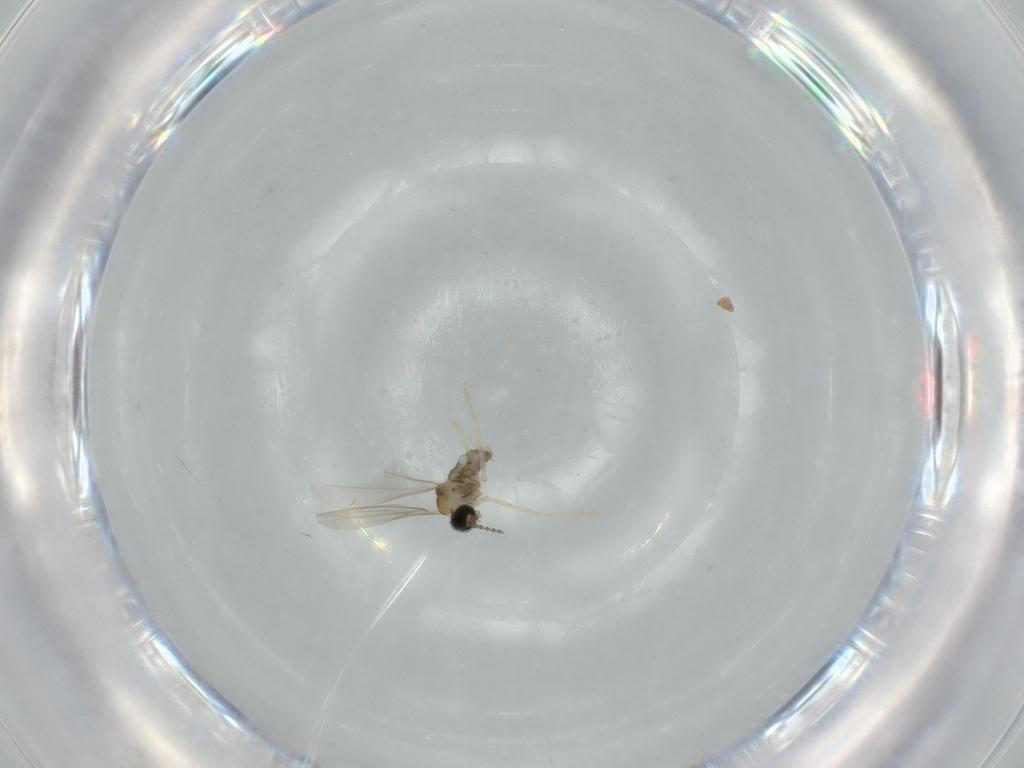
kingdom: Animalia
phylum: Arthropoda
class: Insecta
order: Diptera
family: Cecidomyiidae
